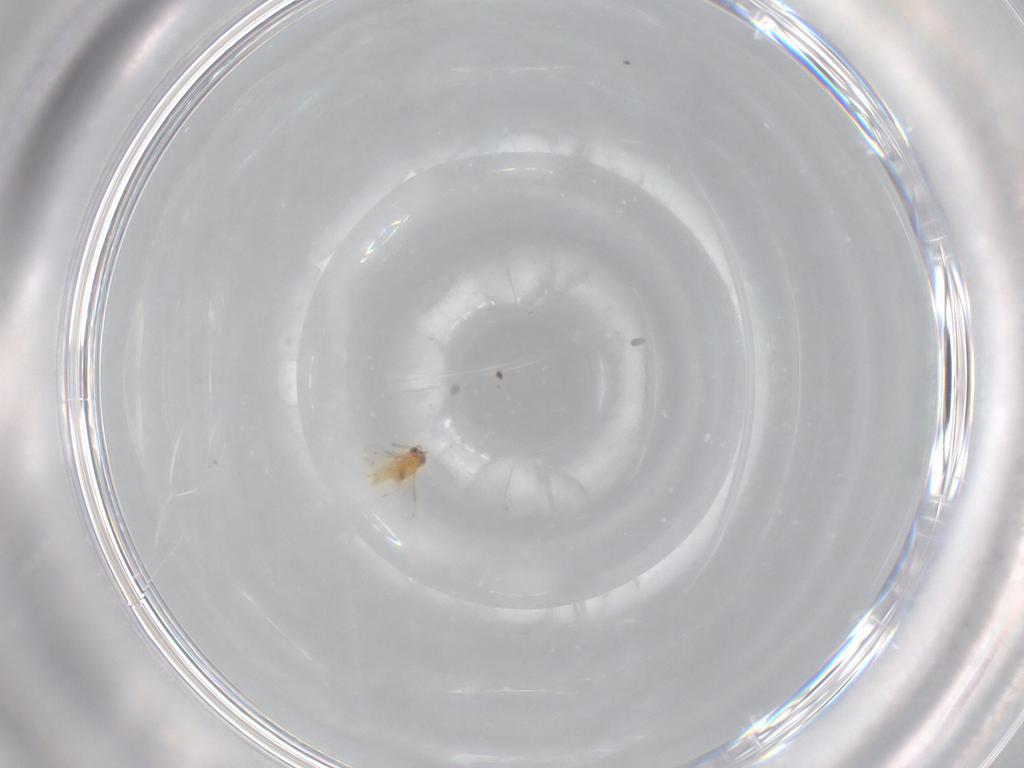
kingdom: Animalia
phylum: Arthropoda
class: Insecta
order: Hymenoptera
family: Aphelinidae
